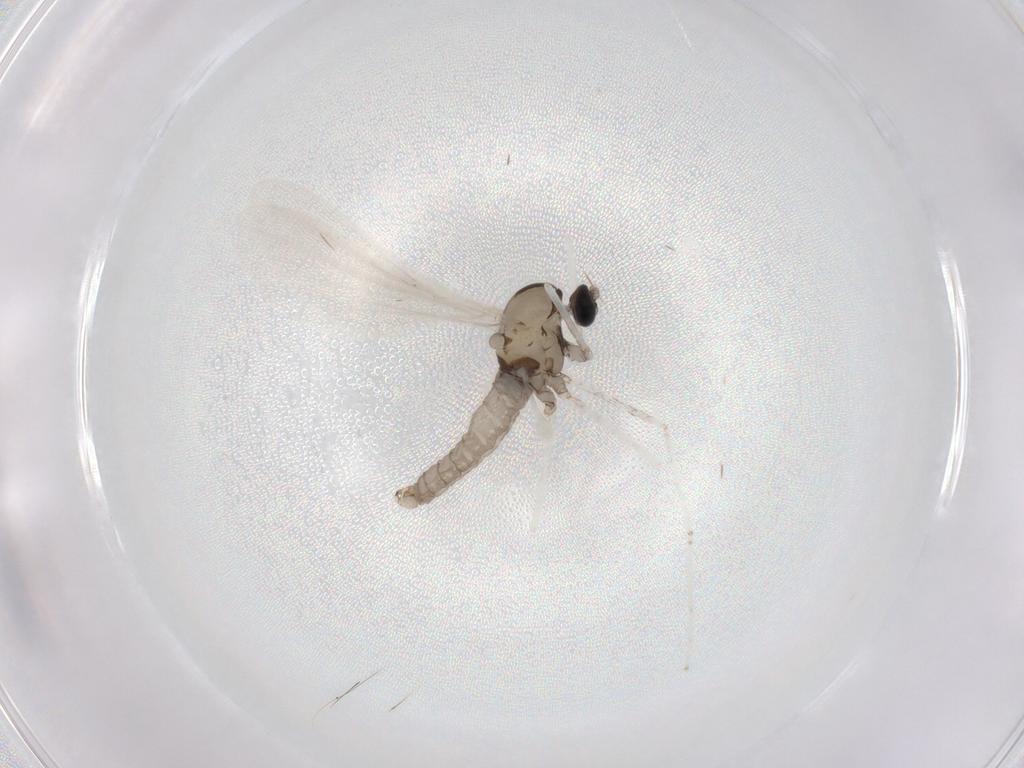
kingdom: Animalia
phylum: Arthropoda
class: Insecta
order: Diptera
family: Cecidomyiidae
